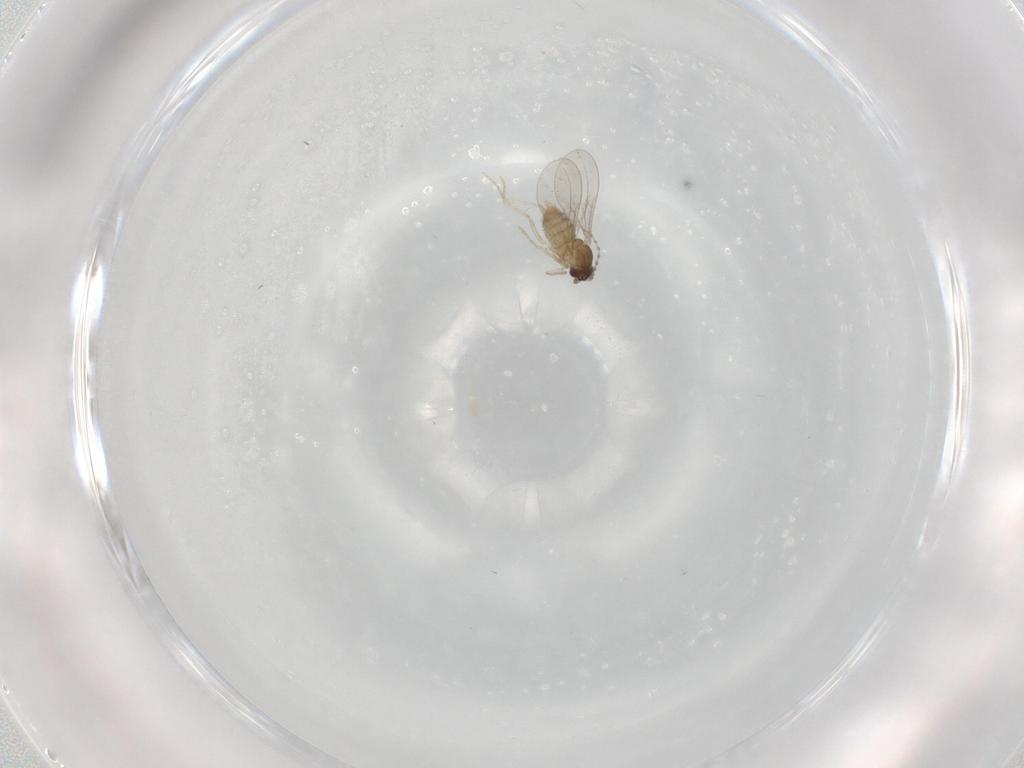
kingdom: Animalia
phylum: Arthropoda
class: Insecta
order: Diptera
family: Cecidomyiidae
